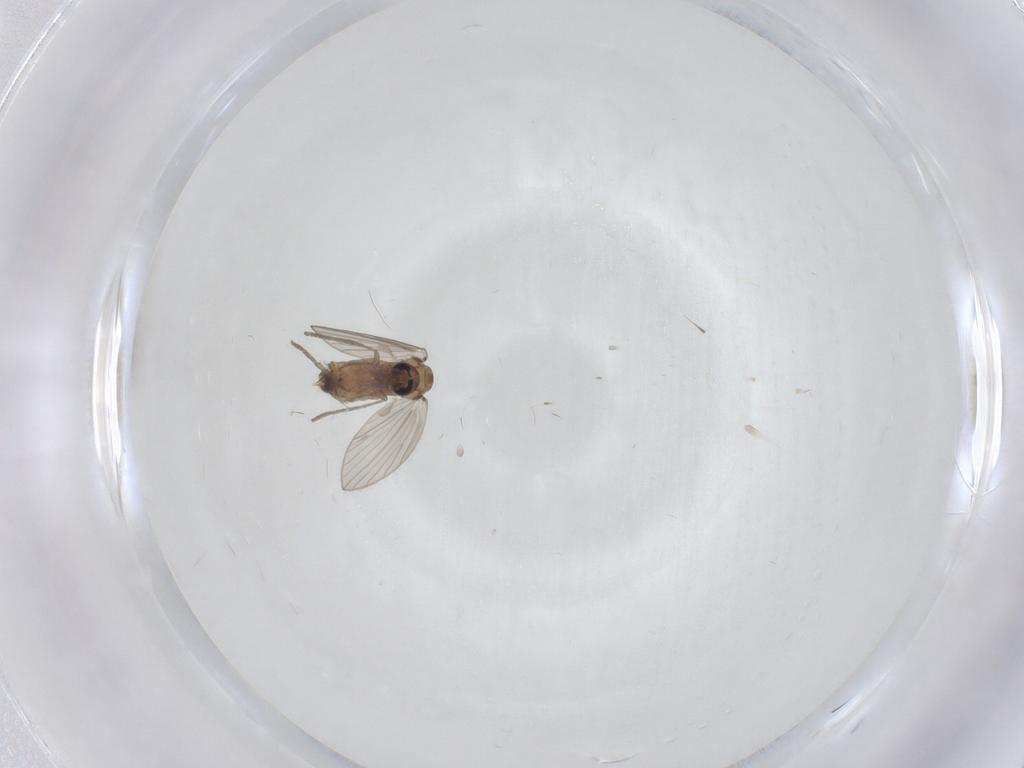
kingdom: Animalia
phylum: Arthropoda
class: Insecta
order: Diptera
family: Psychodidae
